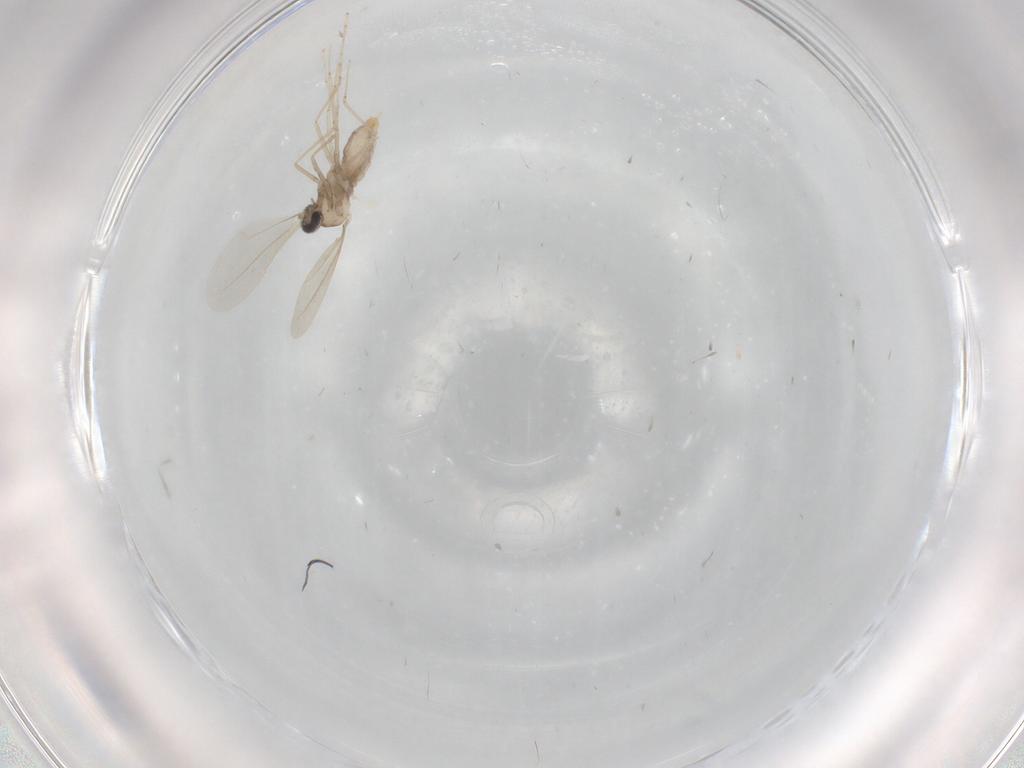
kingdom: Animalia
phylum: Arthropoda
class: Insecta
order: Diptera
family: Cecidomyiidae
